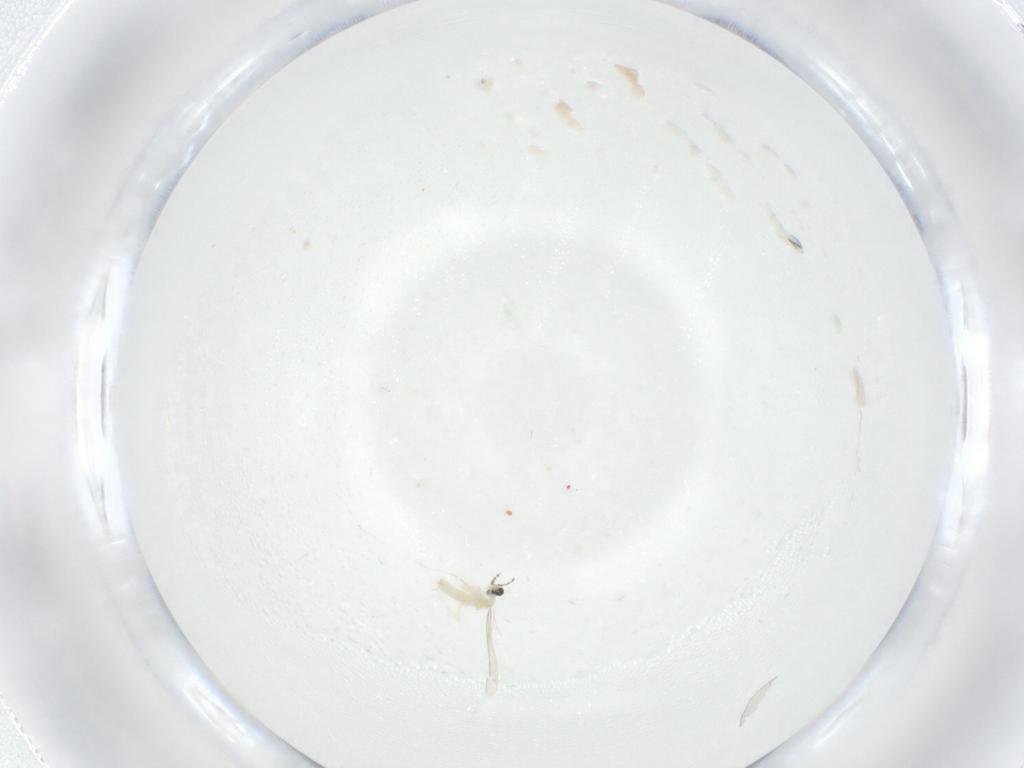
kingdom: Animalia
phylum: Arthropoda
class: Insecta
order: Diptera
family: Cecidomyiidae
